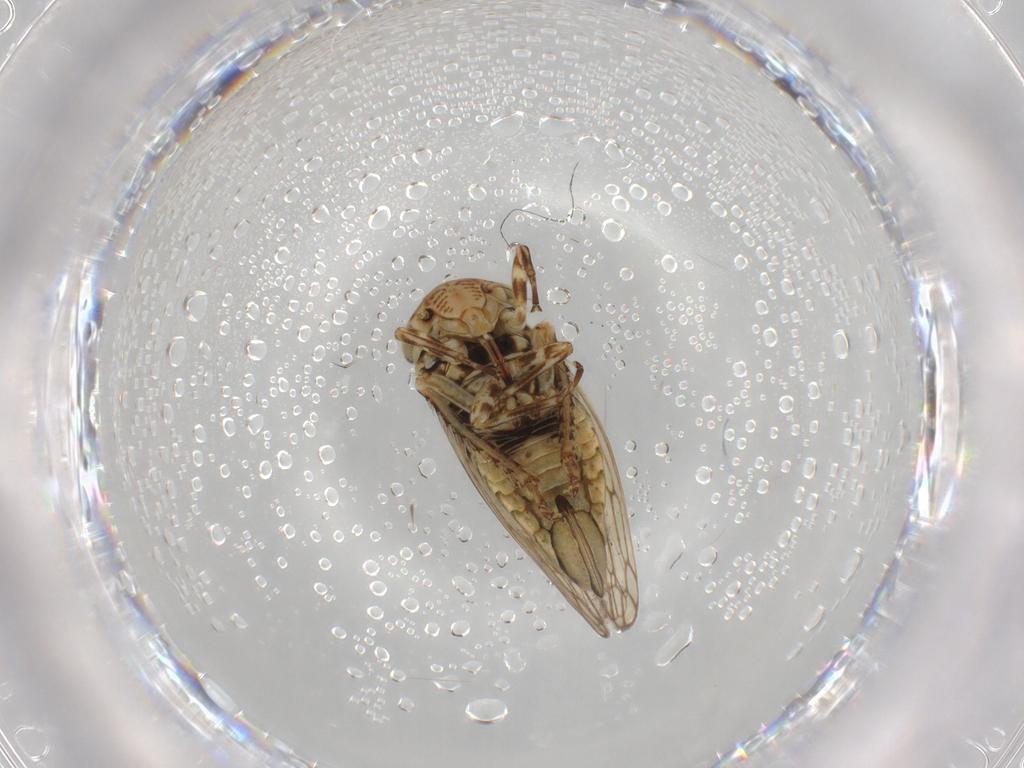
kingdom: Animalia
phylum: Arthropoda
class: Insecta
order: Hemiptera
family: Cicadellidae
